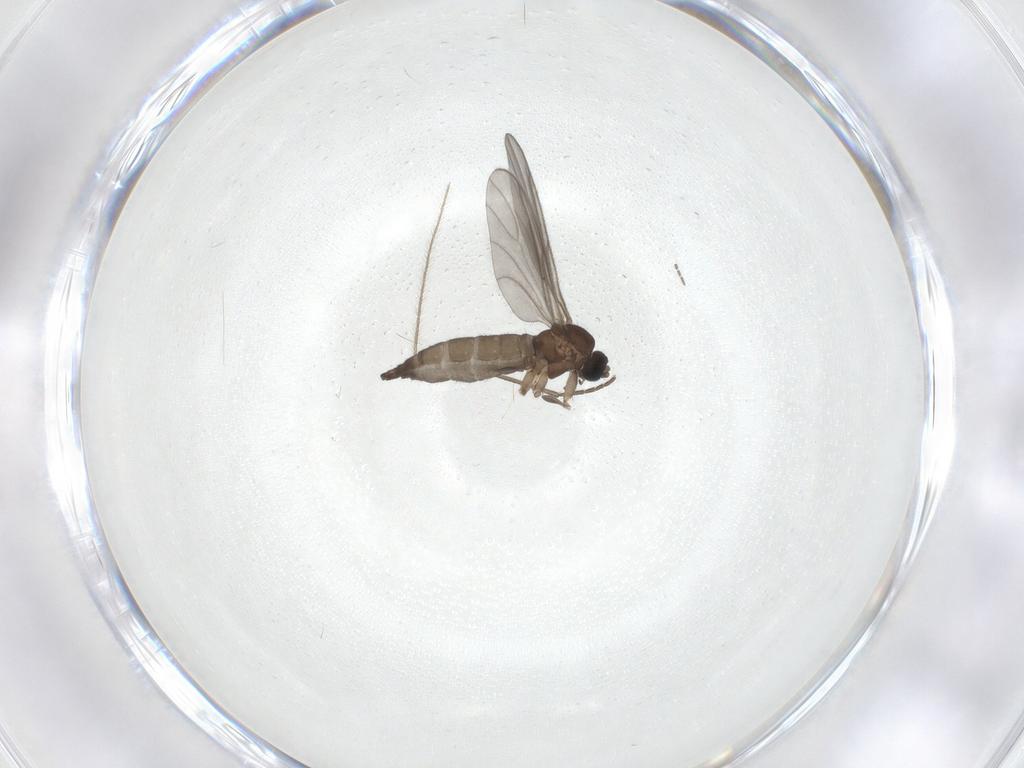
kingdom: Animalia
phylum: Arthropoda
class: Insecta
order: Diptera
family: Sciaridae
